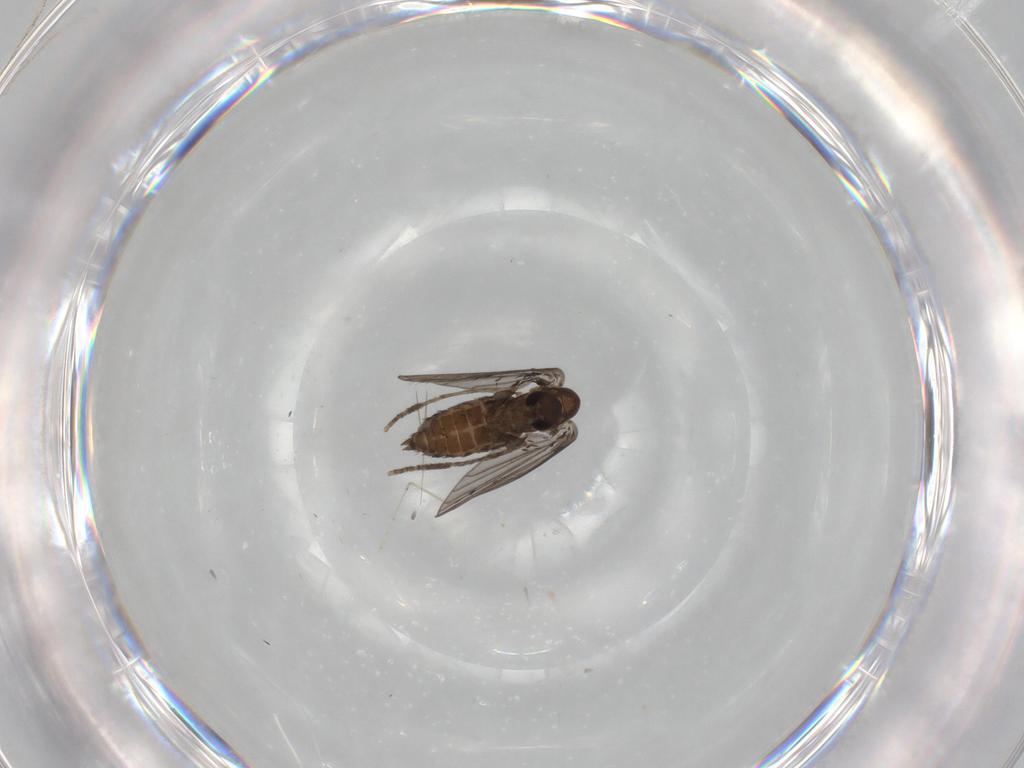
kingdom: Animalia
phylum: Arthropoda
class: Insecta
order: Diptera
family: Psychodidae
